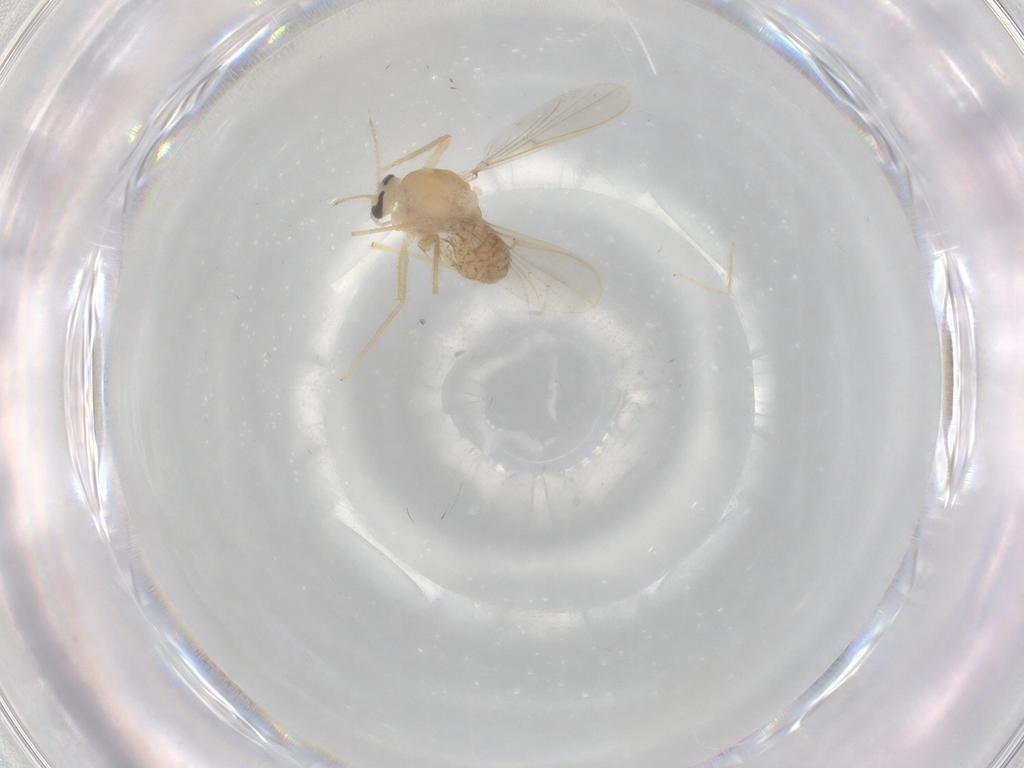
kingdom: Animalia
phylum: Arthropoda
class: Insecta
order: Diptera
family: Chironomidae
